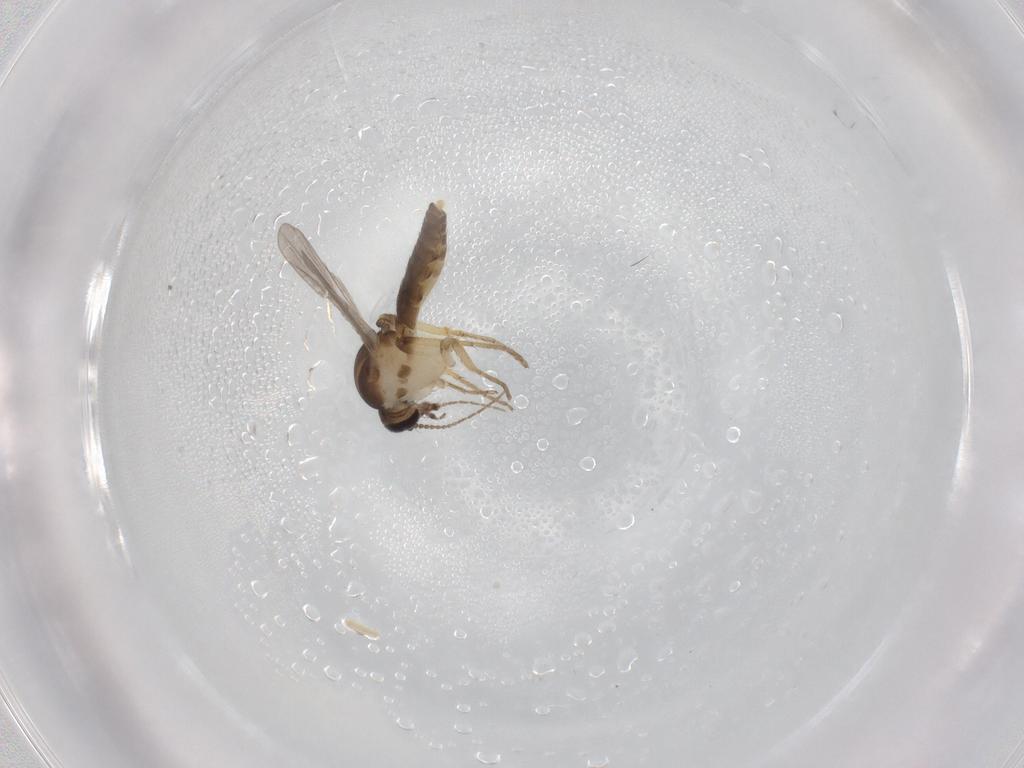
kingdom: Animalia
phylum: Arthropoda
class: Insecta
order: Diptera
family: Ceratopogonidae
